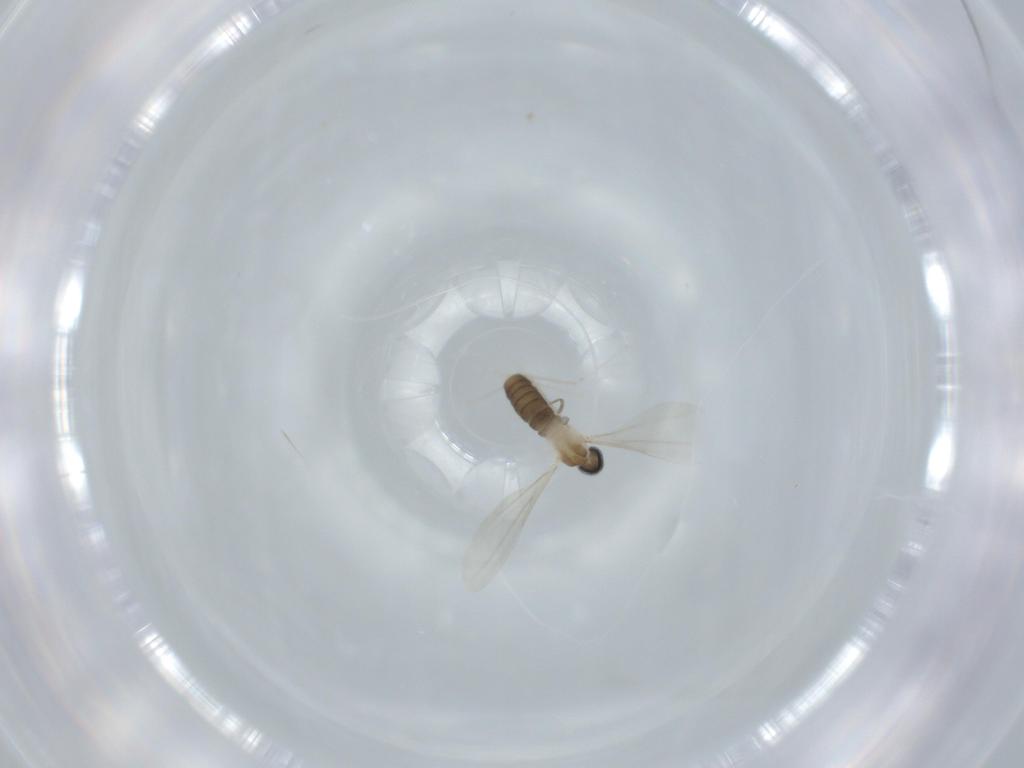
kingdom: Animalia
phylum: Arthropoda
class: Insecta
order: Diptera
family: Cecidomyiidae
